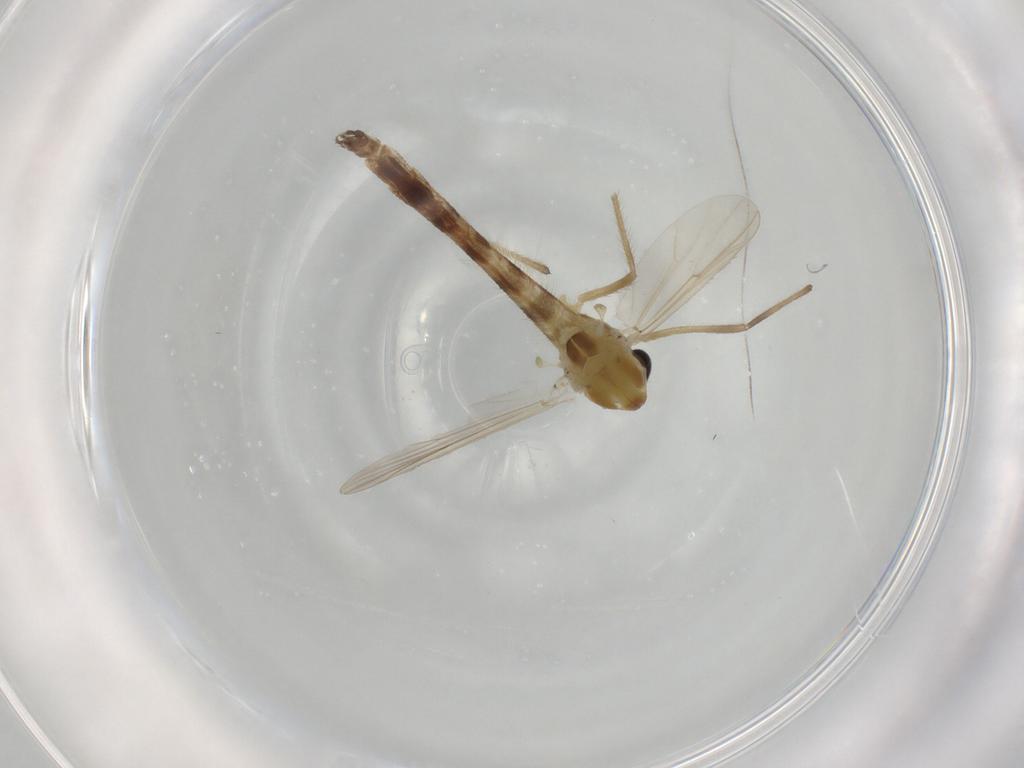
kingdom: Animalia
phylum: Arthropoda
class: Insecta
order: Diptera
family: Chironomidae
